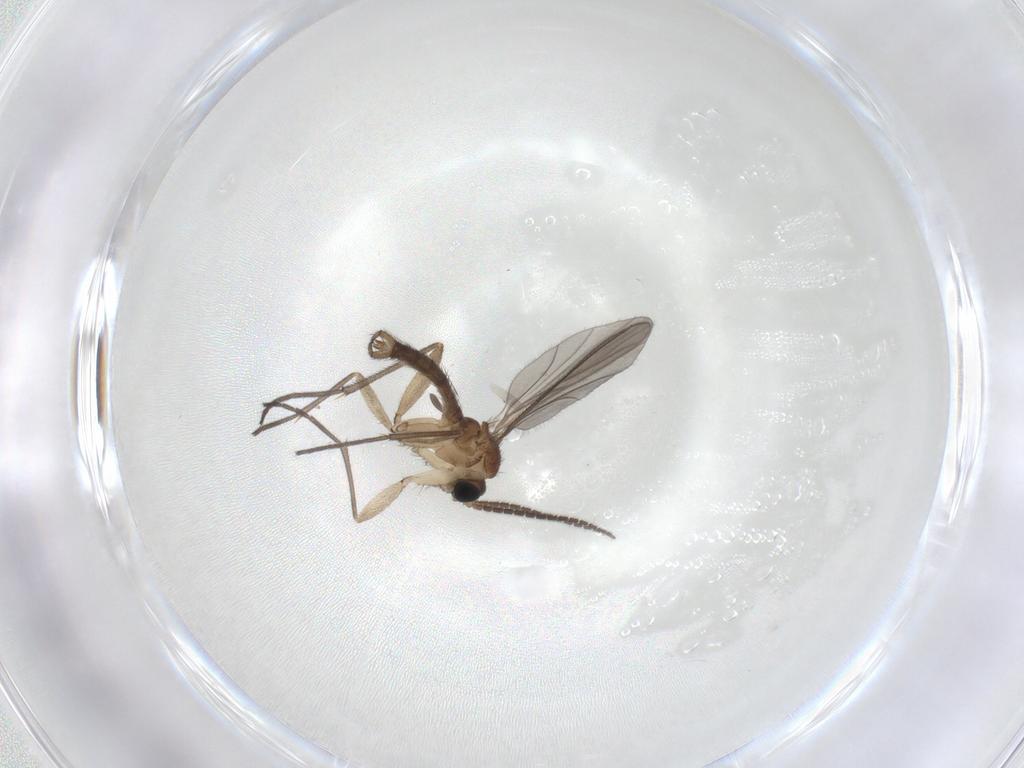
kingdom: Animalia
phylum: Arthropoda
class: Insecta
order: Diptera
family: Sciaridae
